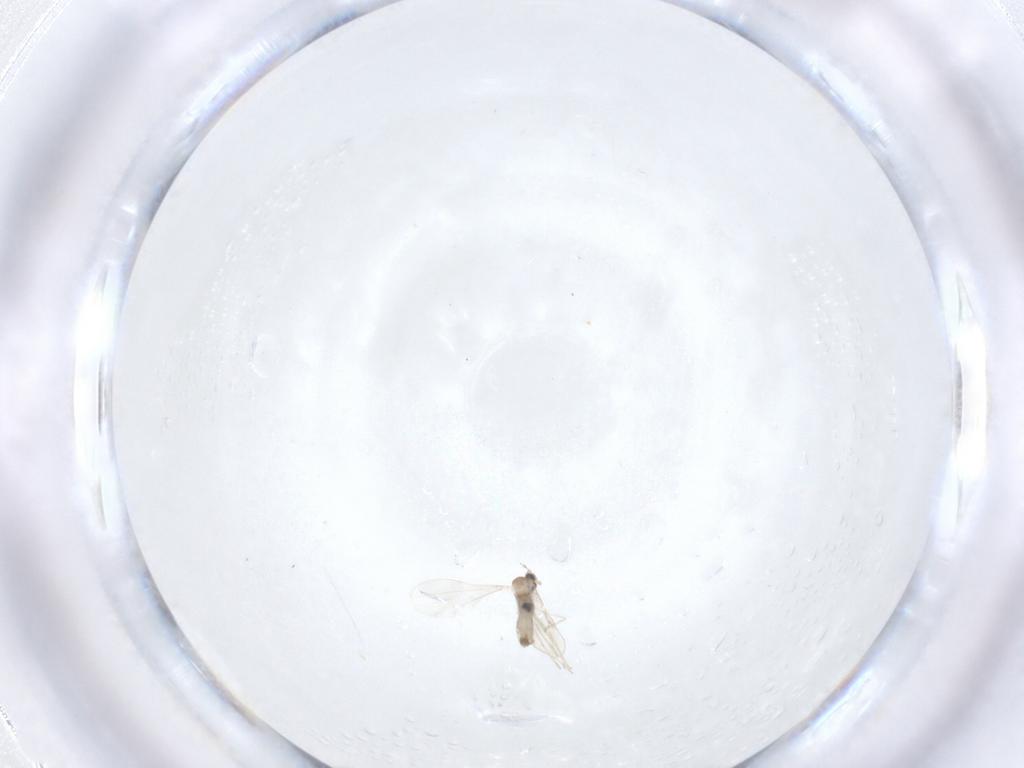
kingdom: Animalia
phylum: Arthropoda
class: Insecta
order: Diptera
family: Cecidomyiidae
